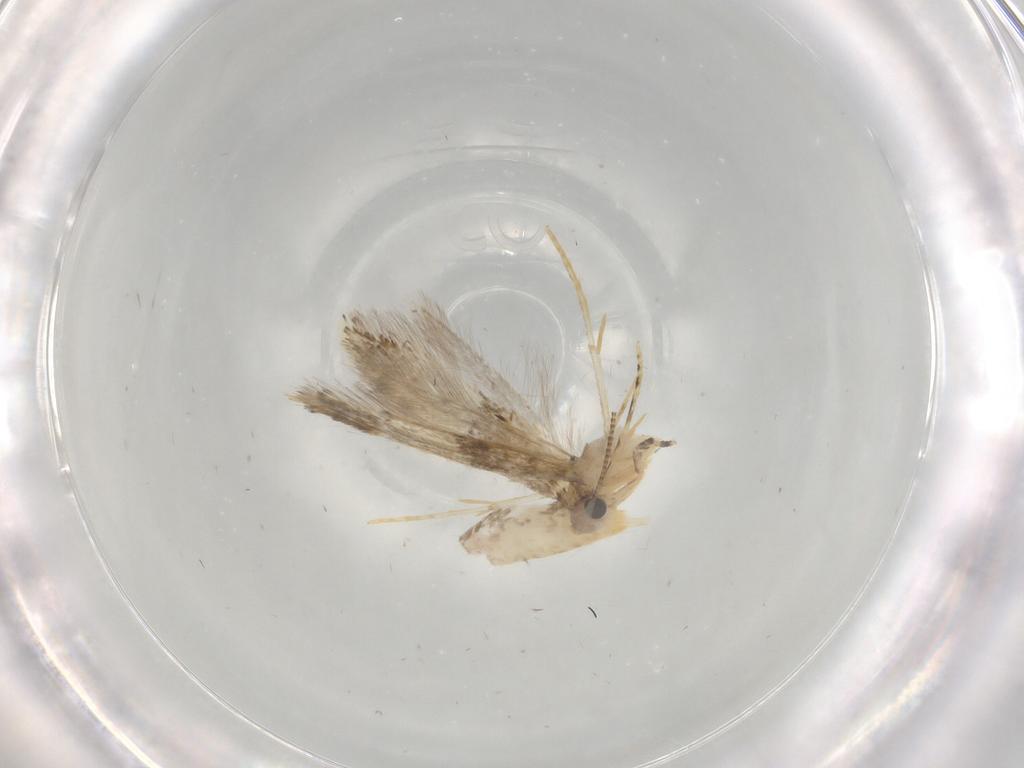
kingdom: Animalia
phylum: Arthropoda
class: Insecta
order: Lepidoptera
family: Tineidae
